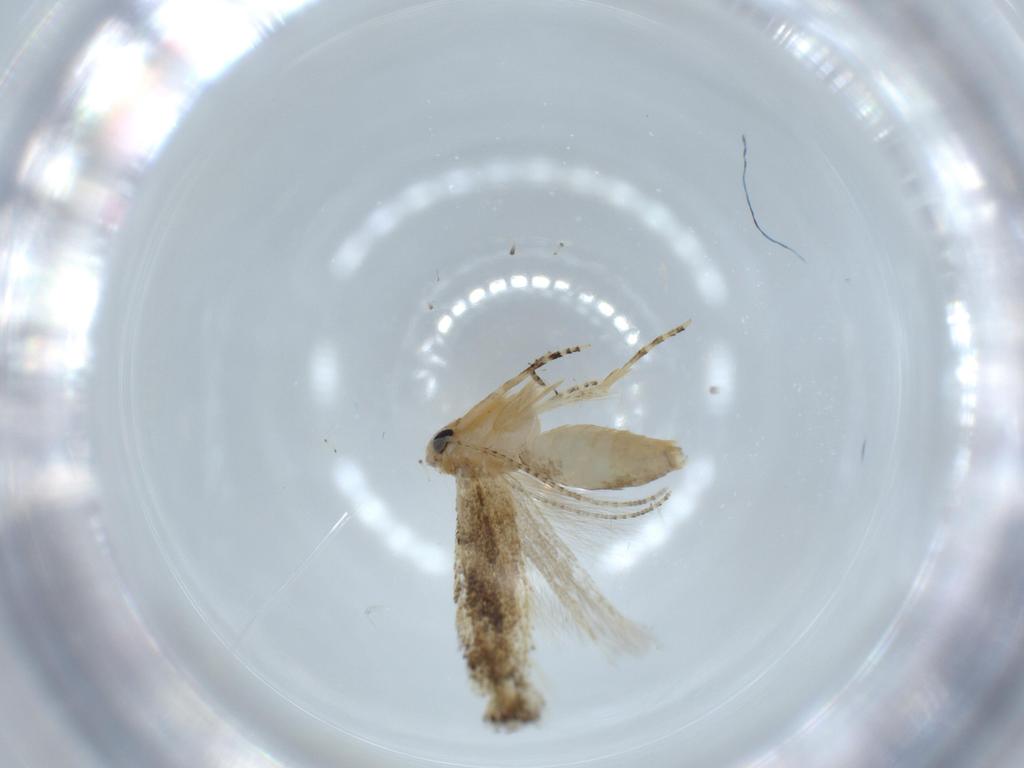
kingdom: Animalia
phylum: Arthropoda
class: Insecta
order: Lepidoptera
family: Bucculatricidae
